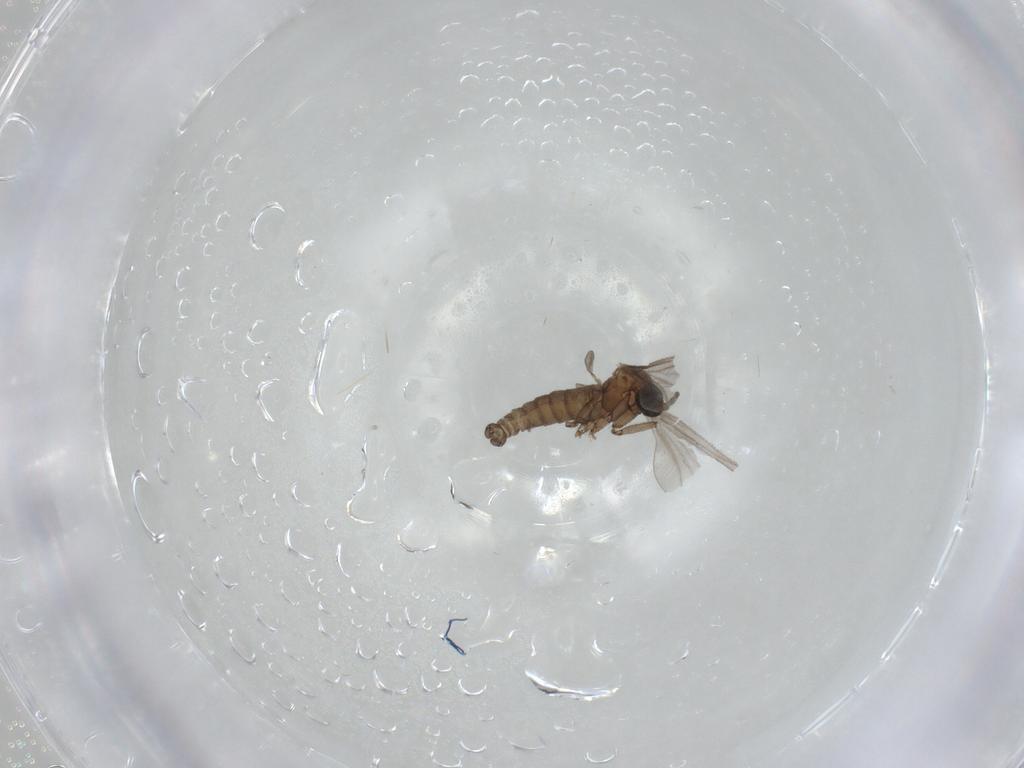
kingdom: Animalia
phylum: Arthropoda
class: Insecta
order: Diptera
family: Sciaridae
